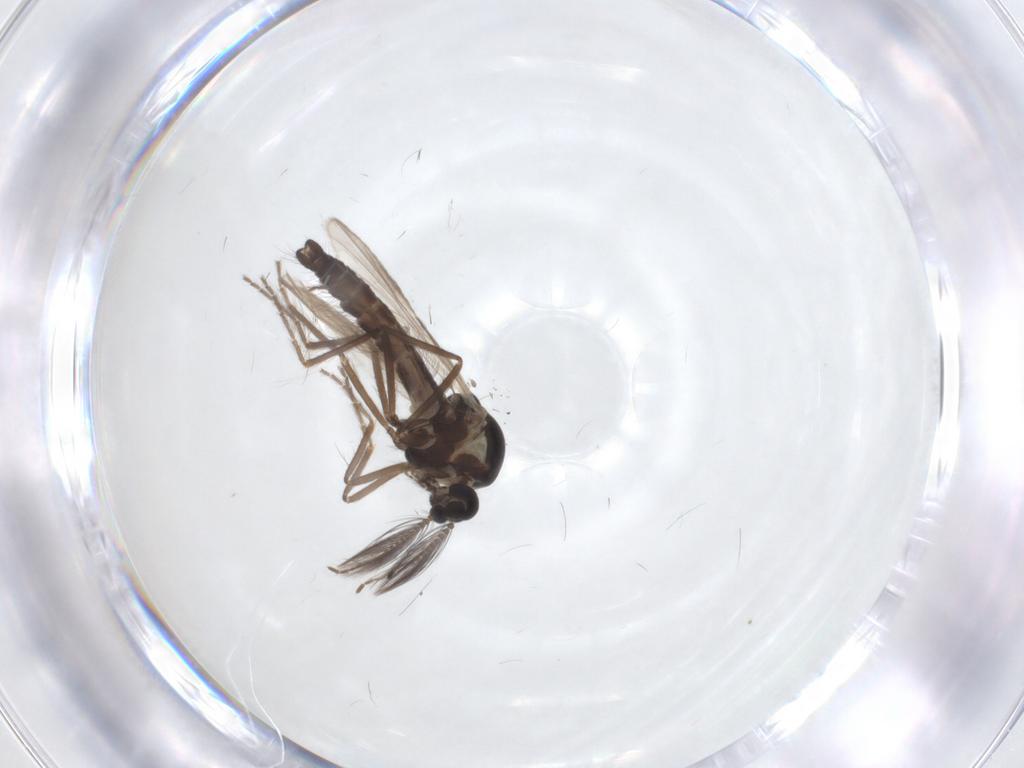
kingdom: Animalia
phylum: Arthropoda
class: Insecta
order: Diptera
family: Ceratopogonidae
